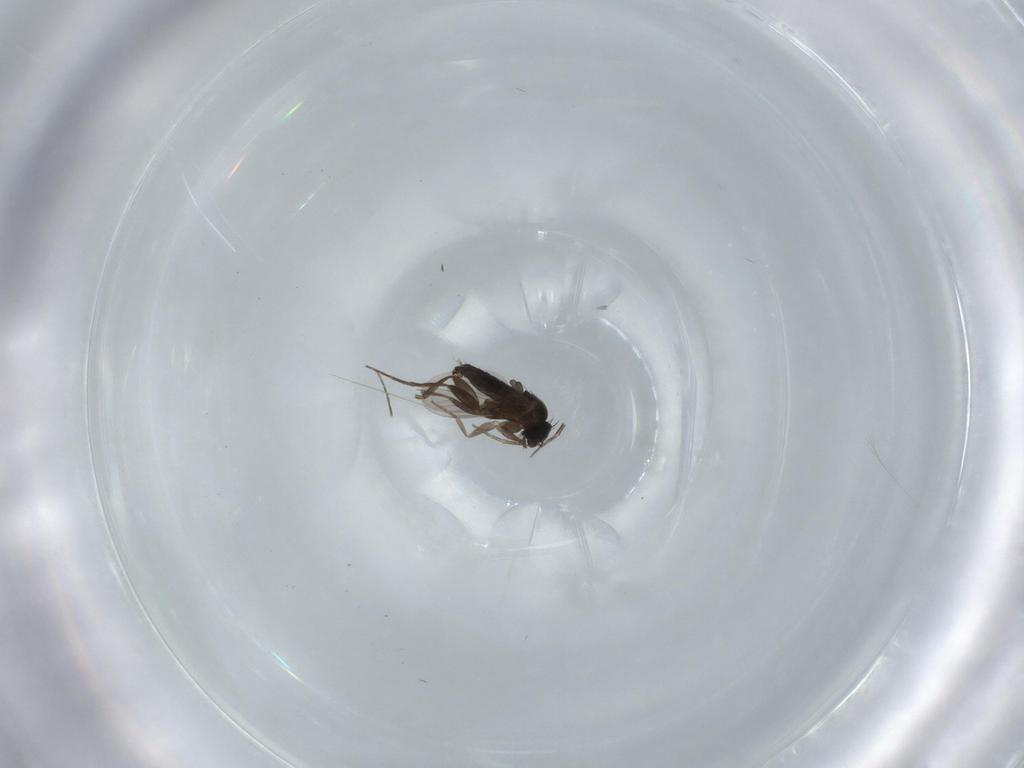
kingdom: Animalia
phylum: Arthropoda
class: Insecta
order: Diptera
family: Phoridae
